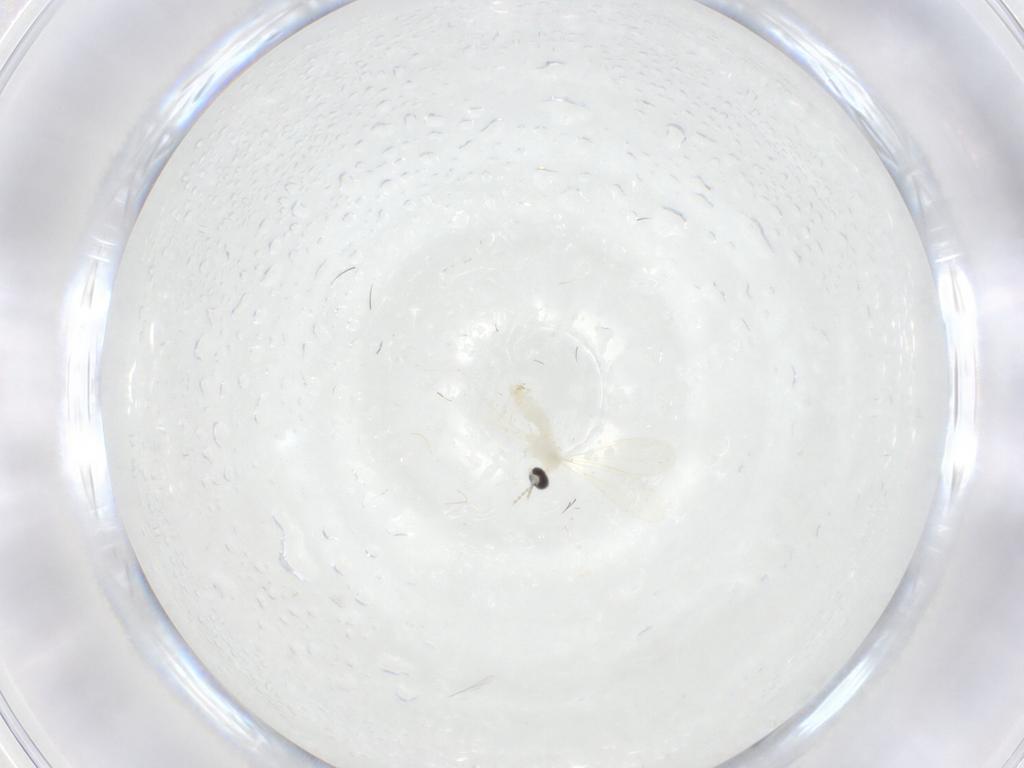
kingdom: Animalia
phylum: Arthropoda
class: Insecta
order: Diptera
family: Cecidomyiidae
